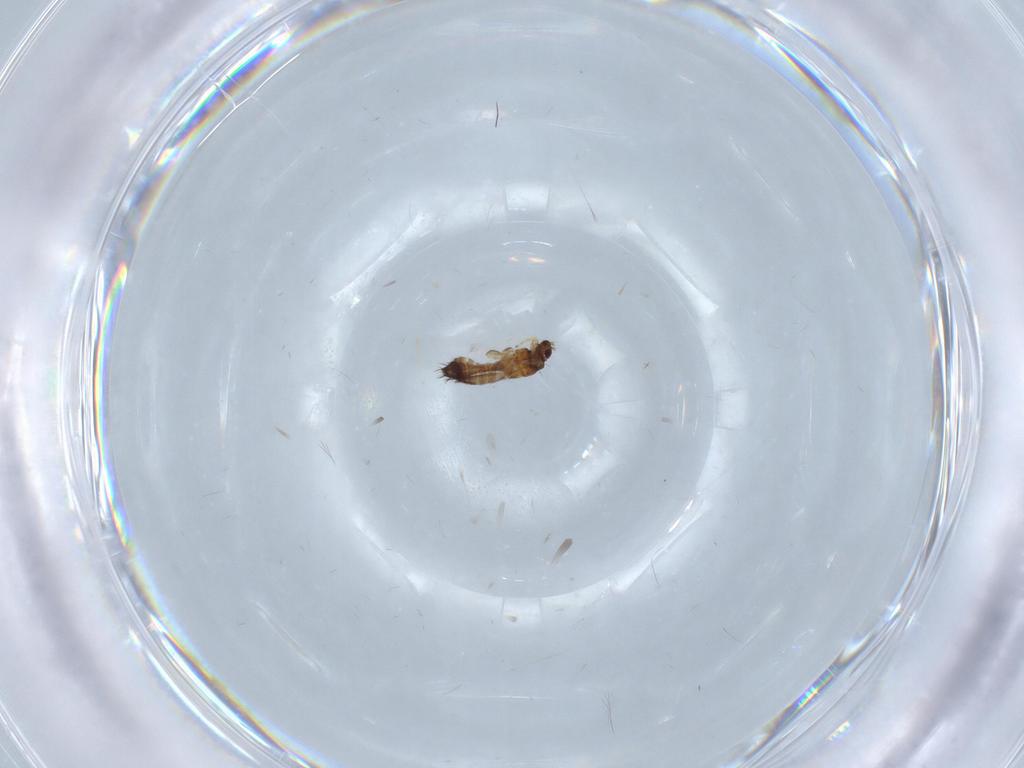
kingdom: Animalia
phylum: Arthropoda
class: Insecta
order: Thysanoptera
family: Thripidae
